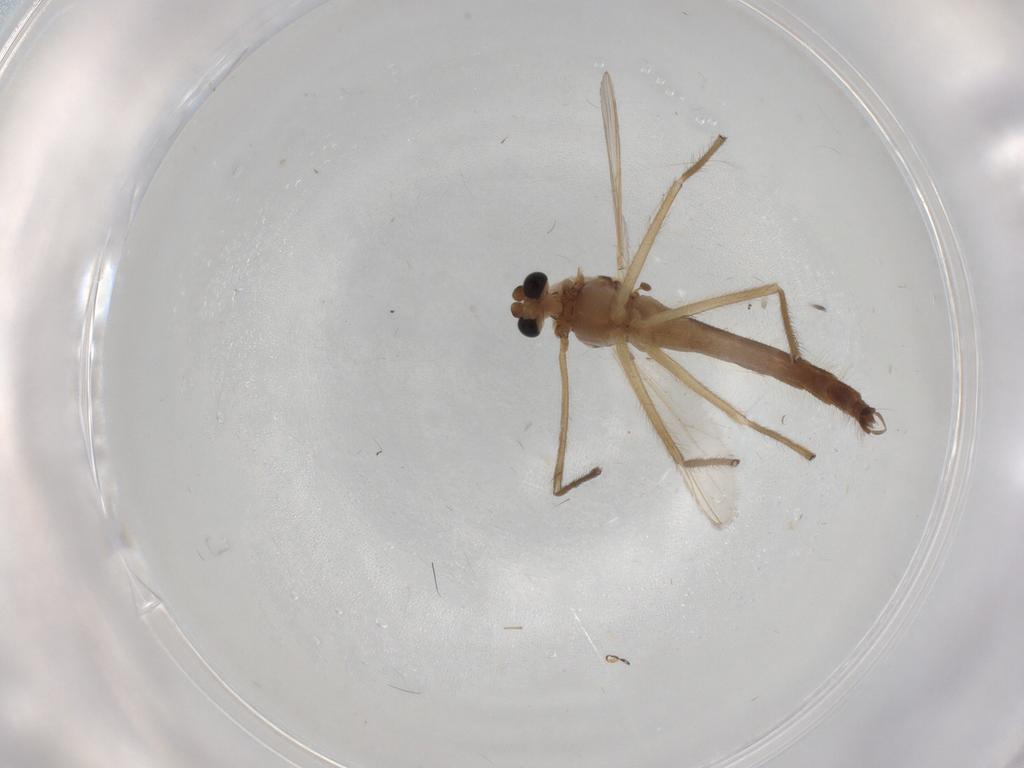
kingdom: Animalia
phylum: Arthropoda
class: Insecta
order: Diptera
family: Chironomidae
